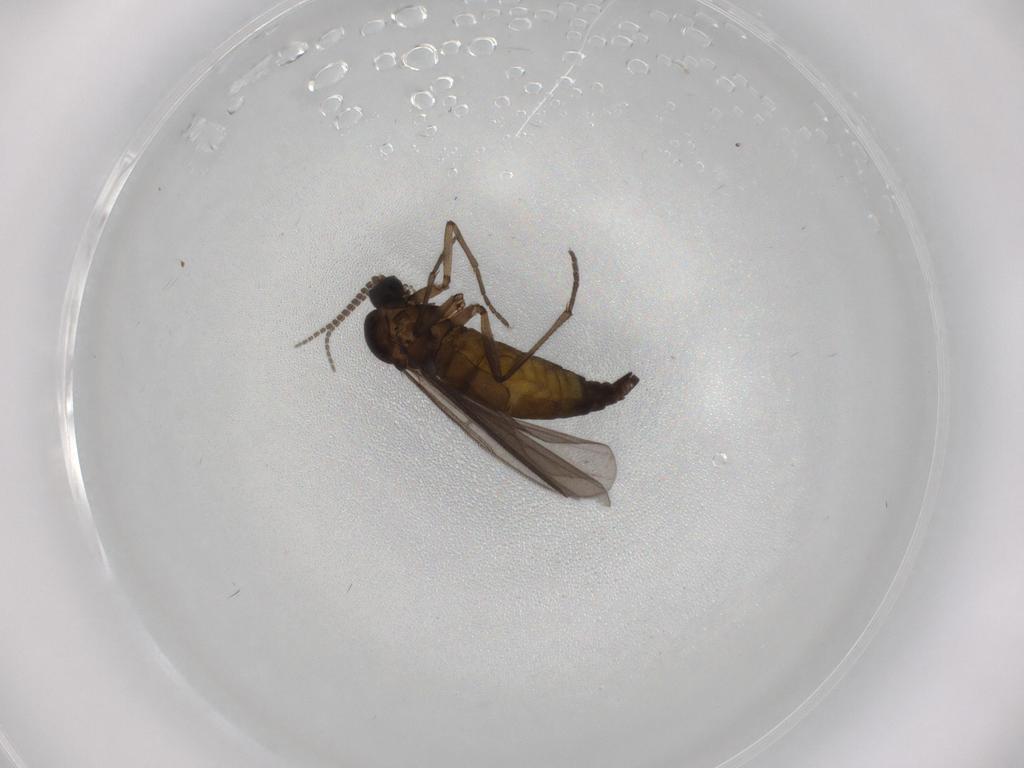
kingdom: Animalia
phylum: Arthropoda
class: Insecta
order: Diptera
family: Sciaridae
